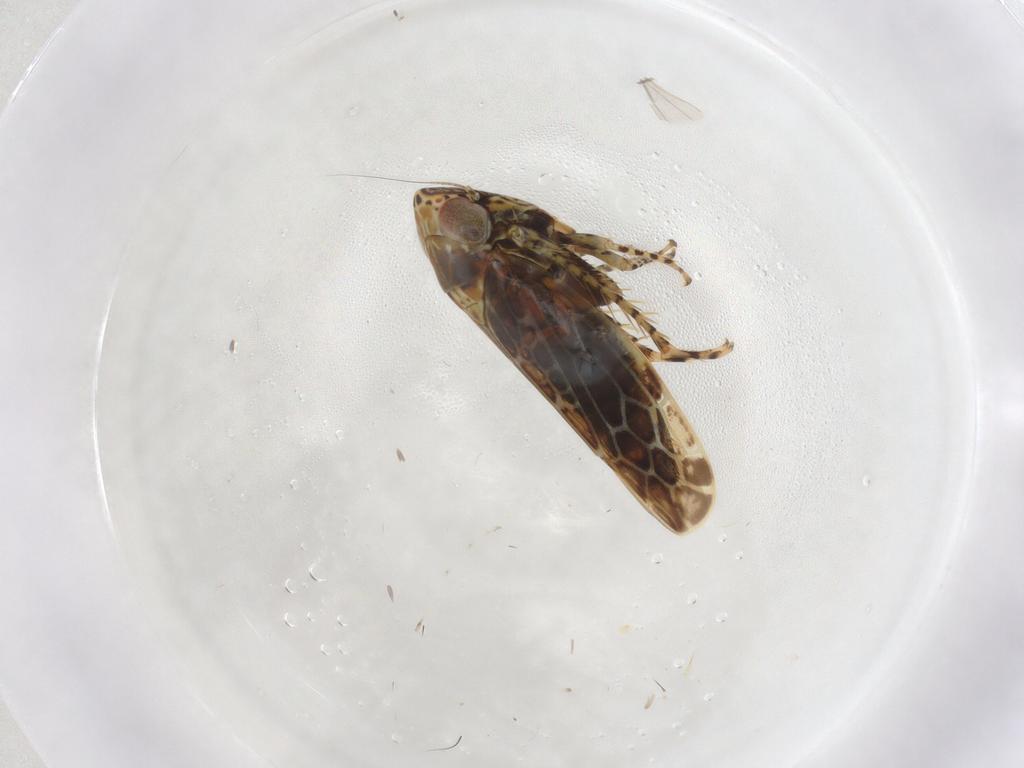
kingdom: Animalia
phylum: Arthropoda
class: Insecta
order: Hemiptera
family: Cicadellidae
